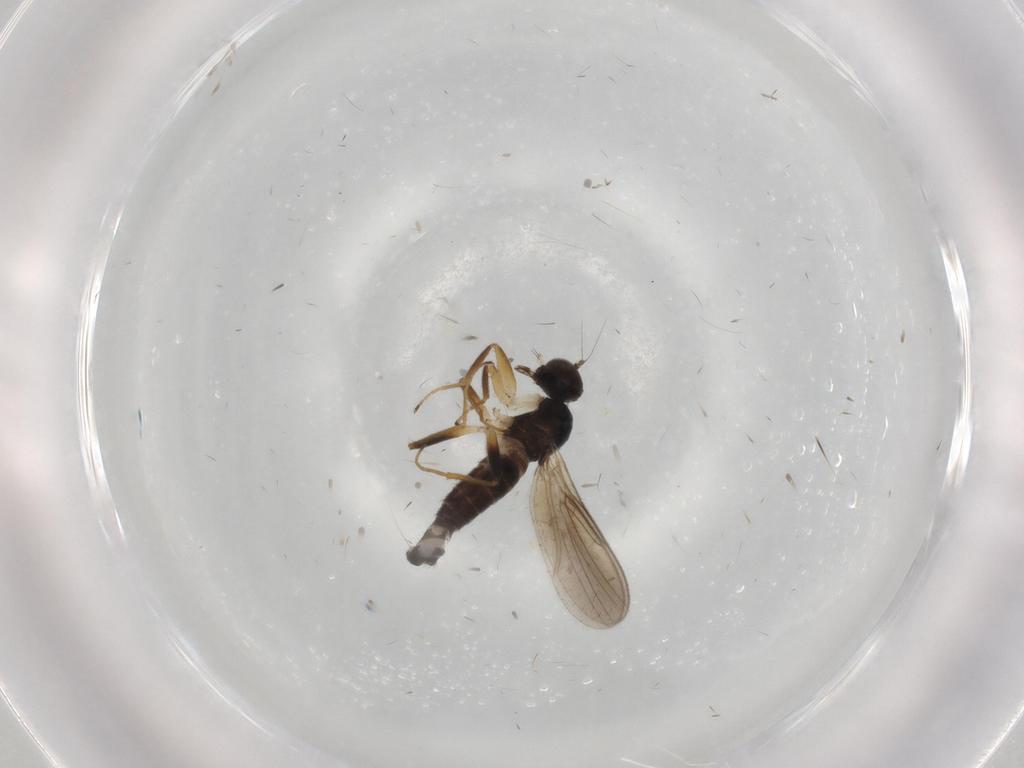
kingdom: Animalia
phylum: Arthropoda
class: Insecta
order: Diptera
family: Hybotidae
